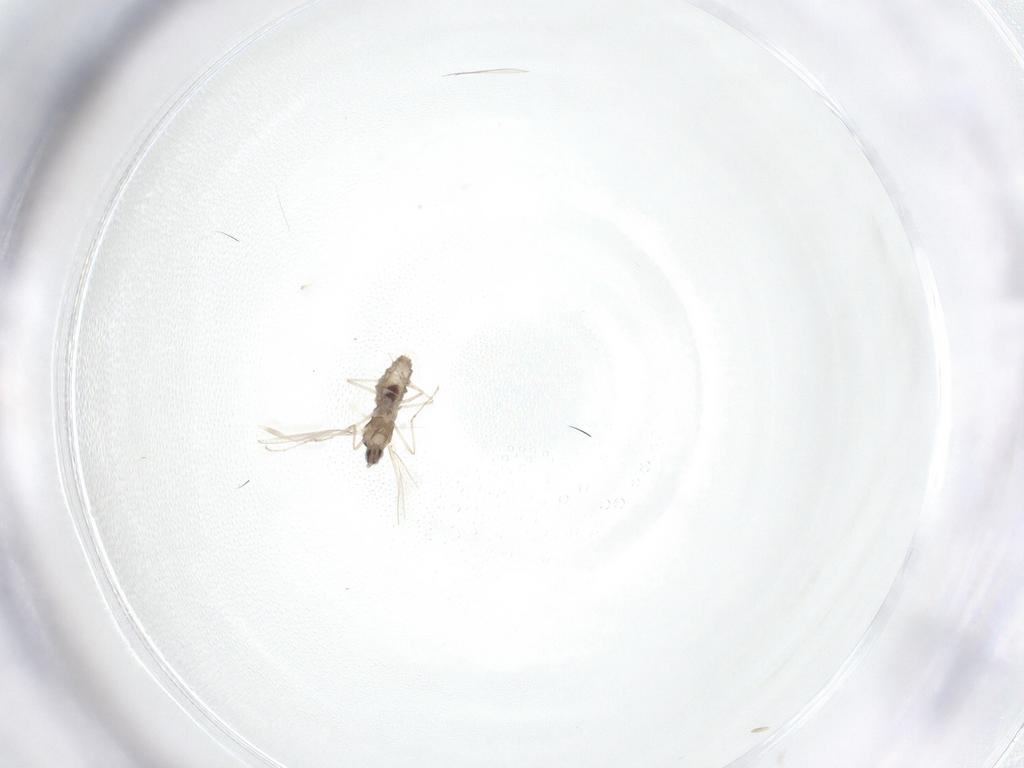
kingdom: Animalia
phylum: Arthropoda
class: Insecta
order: Diptera
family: Cecidomyiidae
